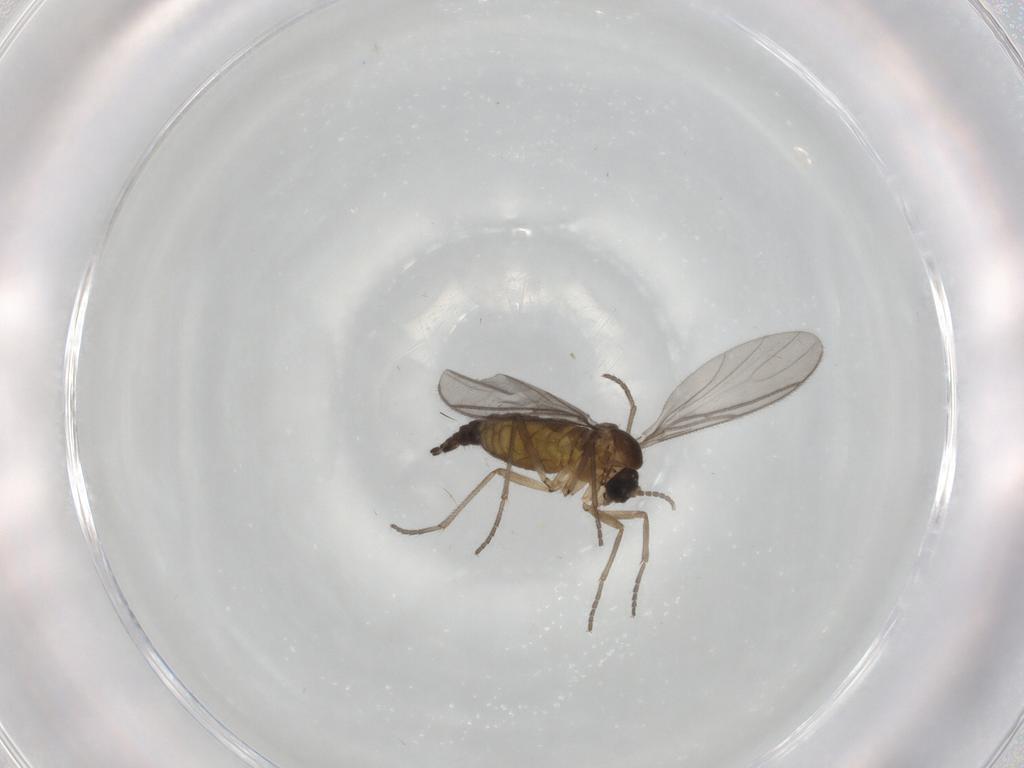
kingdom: Animalia
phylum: Arthropoda
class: Insecta
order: Diptera
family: Sciaridae
